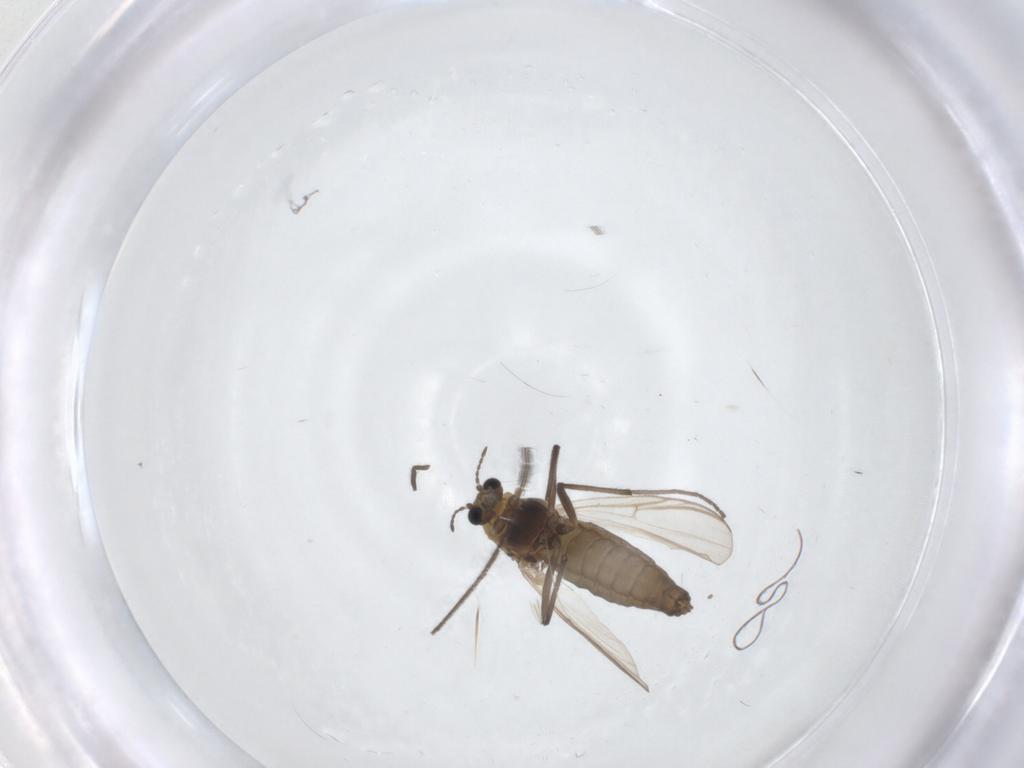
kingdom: Animalia
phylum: Arthropoda
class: Insecta
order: Diptera
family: Chironomidae
